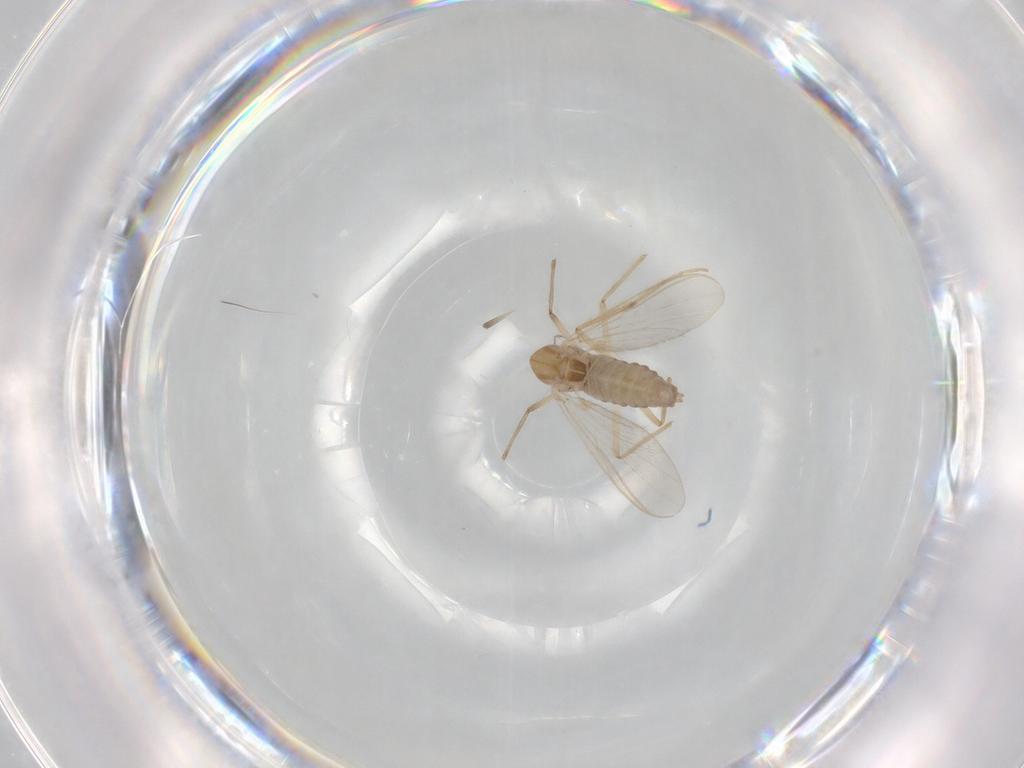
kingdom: Animalia
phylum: Arthropoda
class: Insecta
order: Diptera
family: Chironomidae
